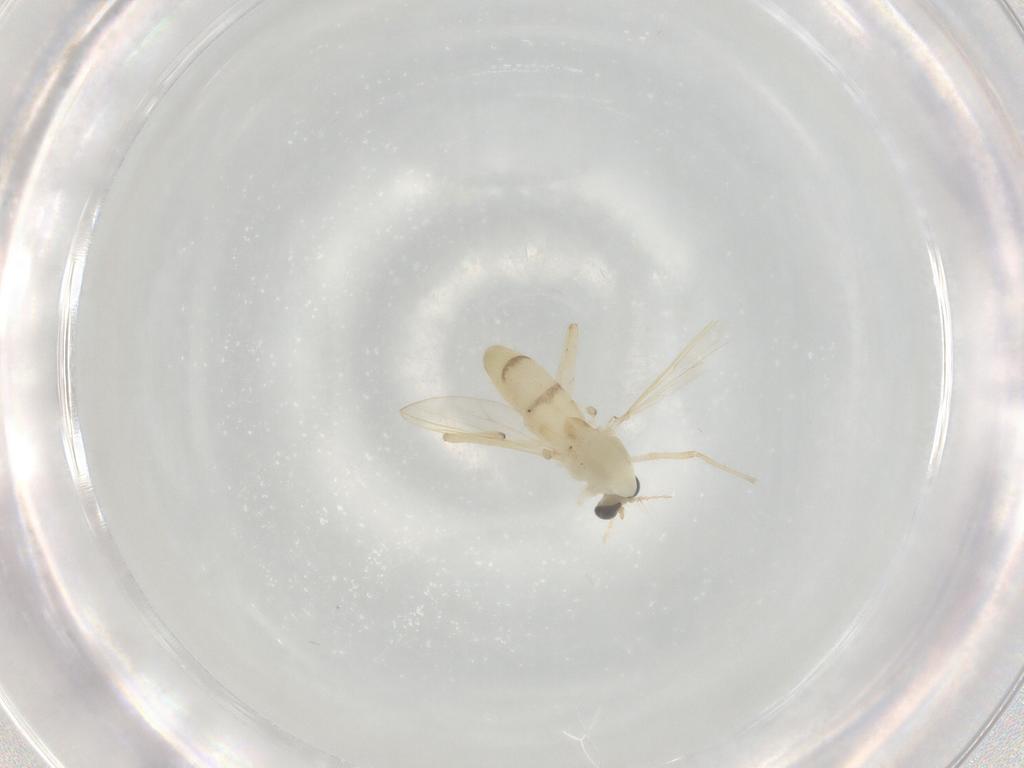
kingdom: Animalia
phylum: Arthropoda
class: Insecta
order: Diptera
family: Chironomidae
